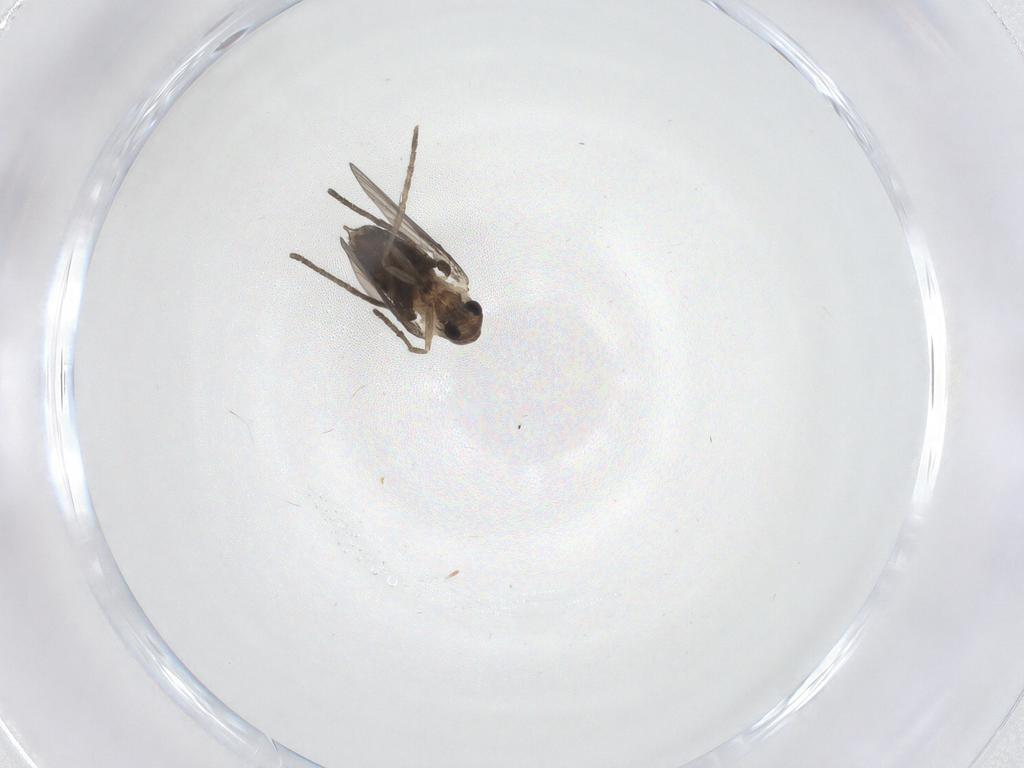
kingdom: Animalia
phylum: Arthropoda
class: Insecta
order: Diptera
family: Psychodidae
